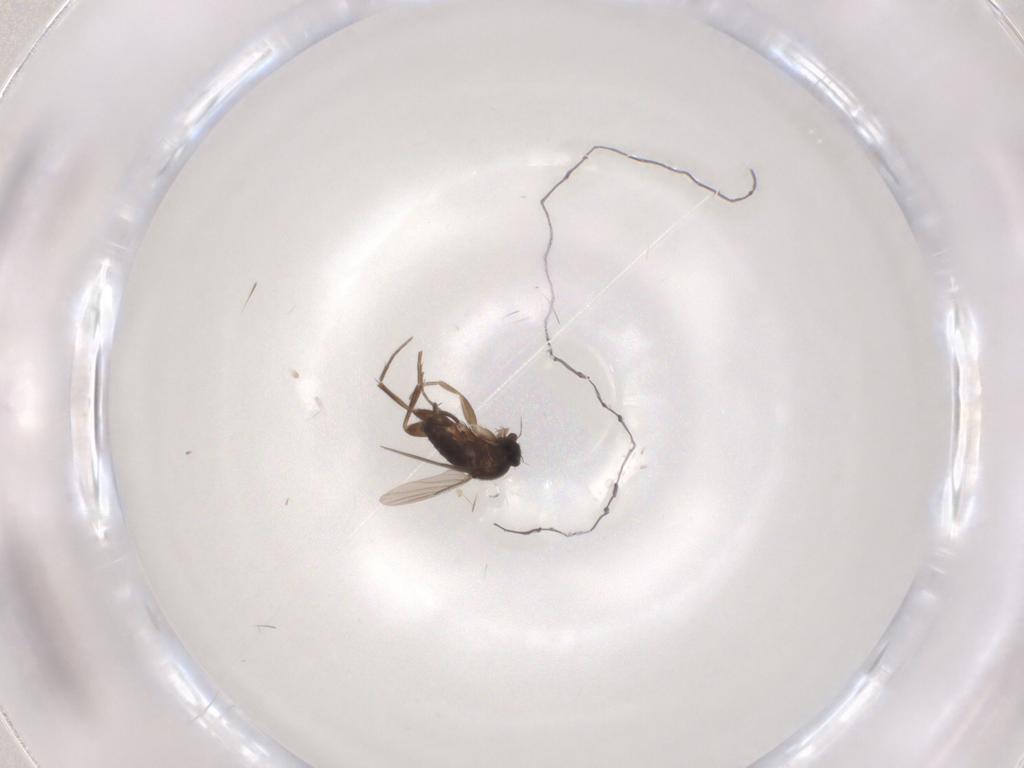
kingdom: Animalia
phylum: Arthropoda
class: Insecta
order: Diptera
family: Phoridae
